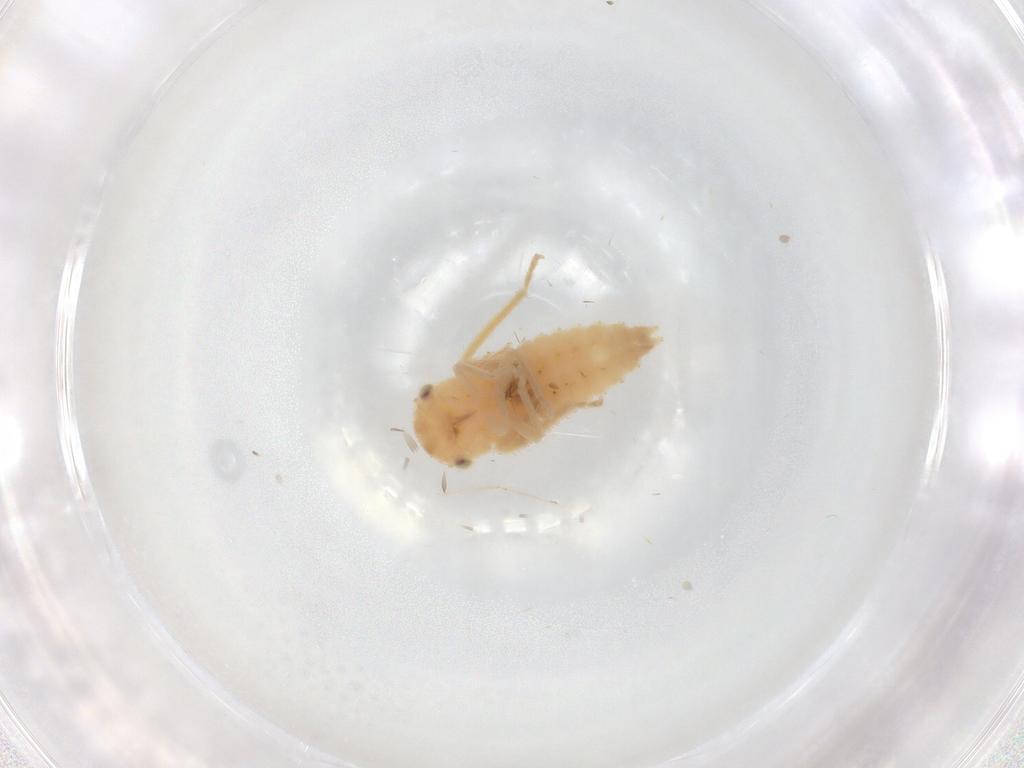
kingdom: Animalia
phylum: Arthropoda
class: Insecta
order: Hemiptera
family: Cicadellidae
